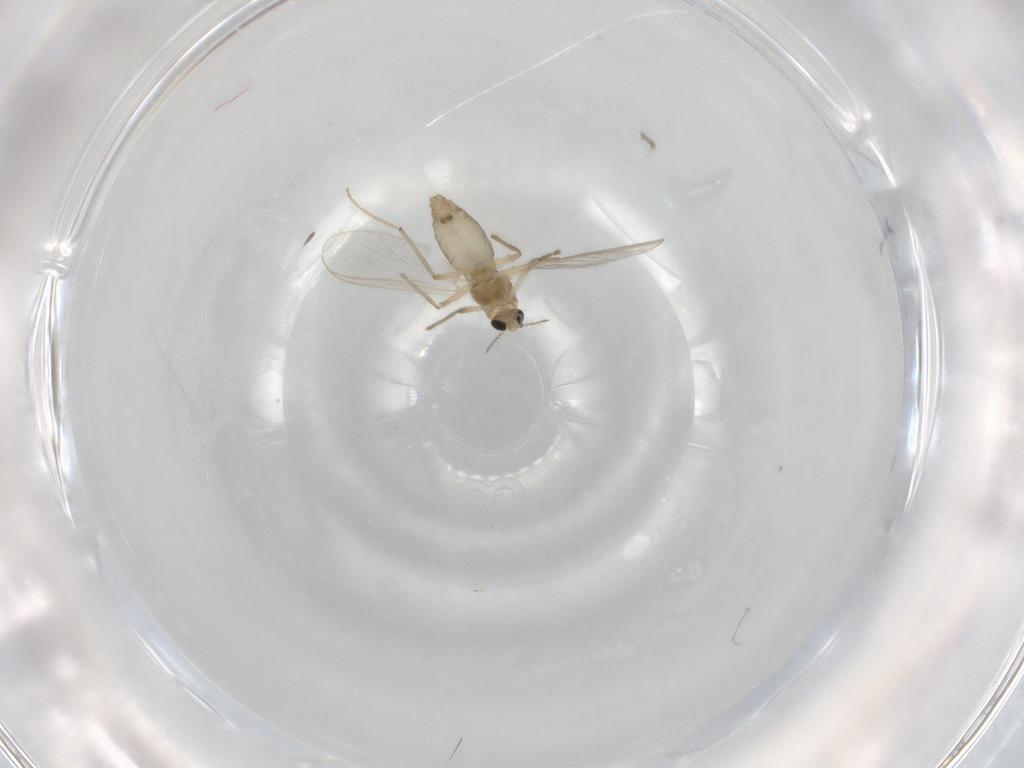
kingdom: Animalia
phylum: Arthropoda
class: Insecta
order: Diptera
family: Chironomidae
